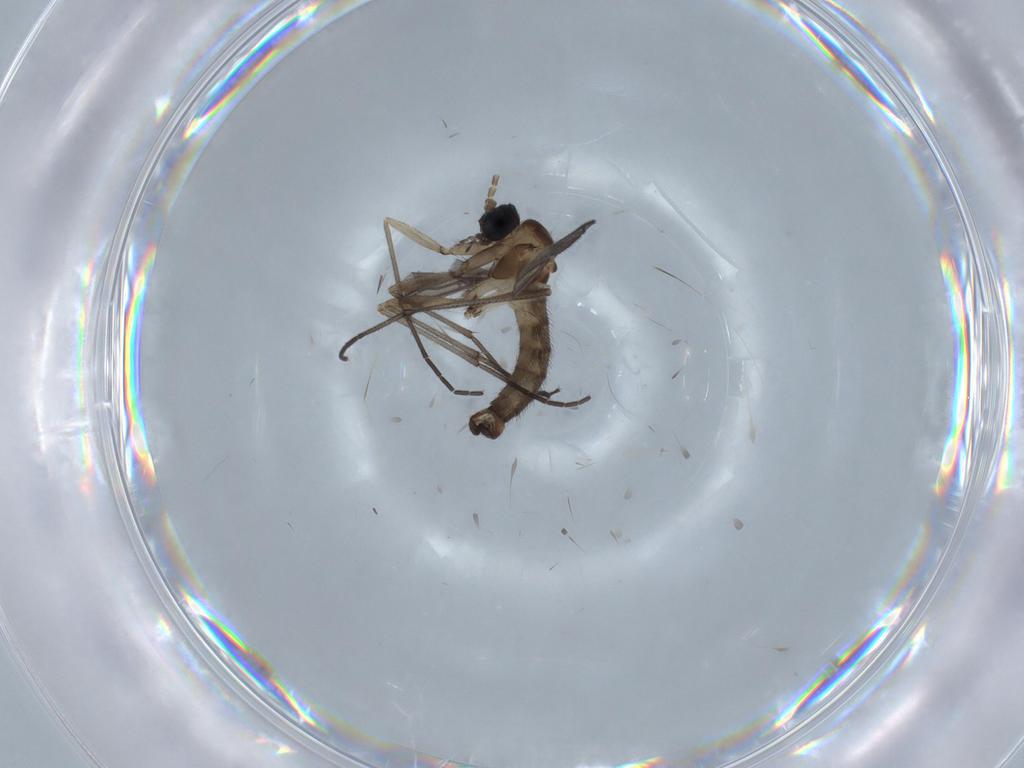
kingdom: Animalia
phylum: Arthropoda
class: Insecta
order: Diptera
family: Sciaridae
